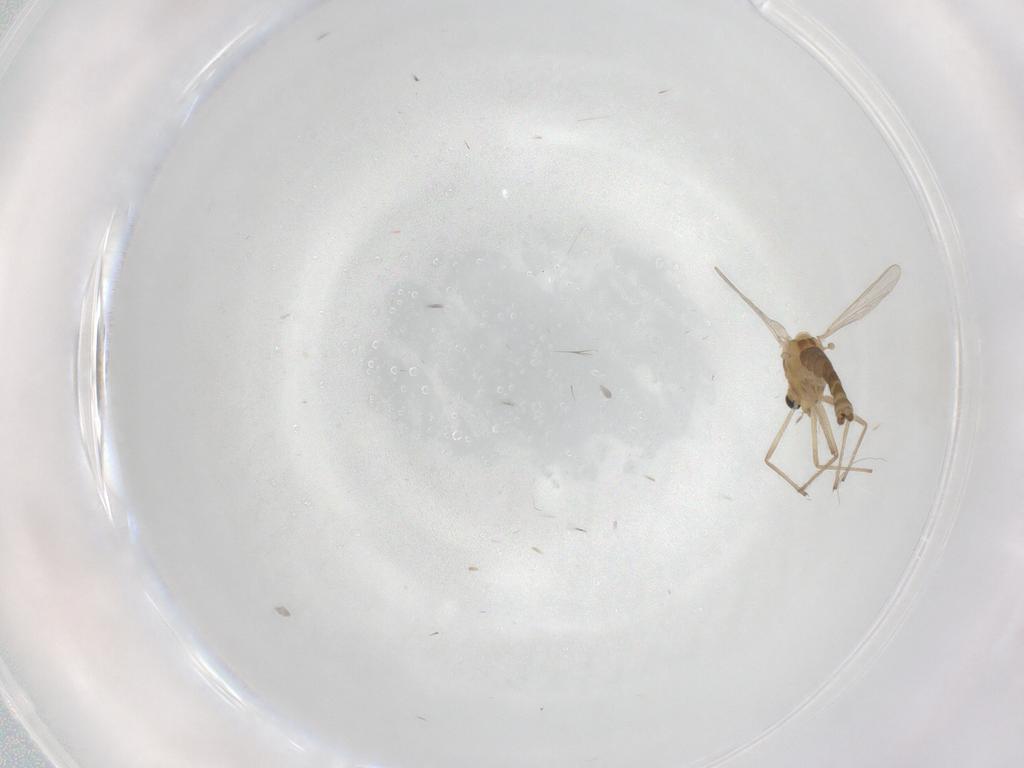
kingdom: Animalia
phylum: Arthropoda
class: Insecta
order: Diptera
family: Chironomidae
